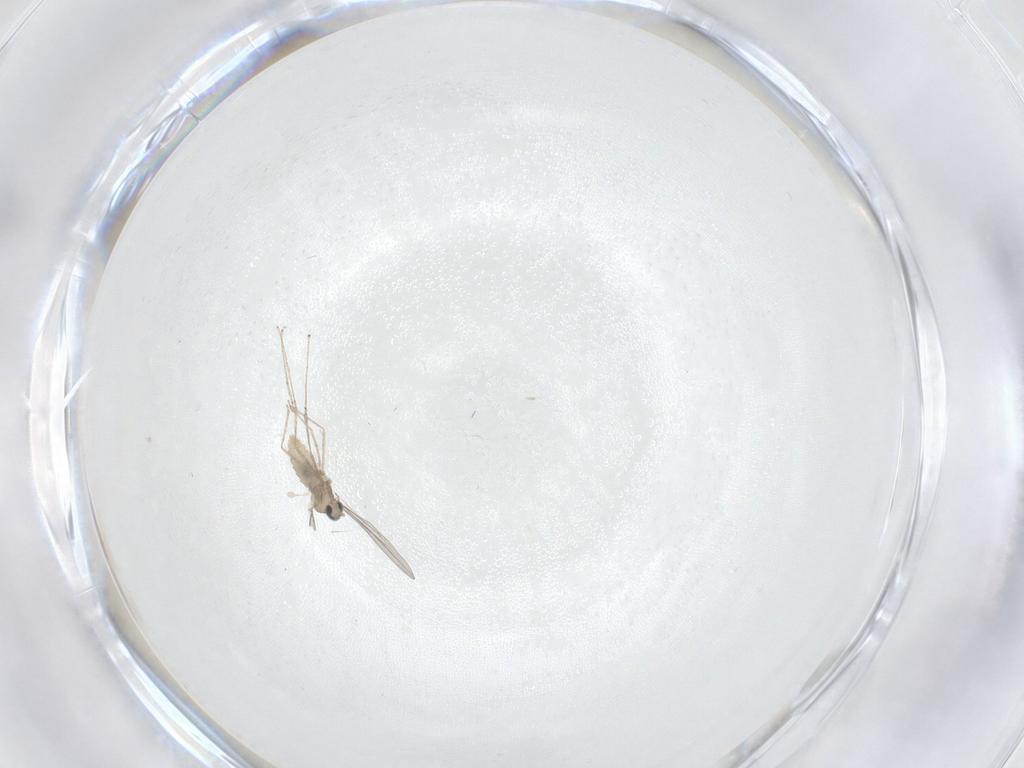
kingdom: Animalia
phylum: Arthropoda
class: Insecta
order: Diptera
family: Cecidomyiidae
